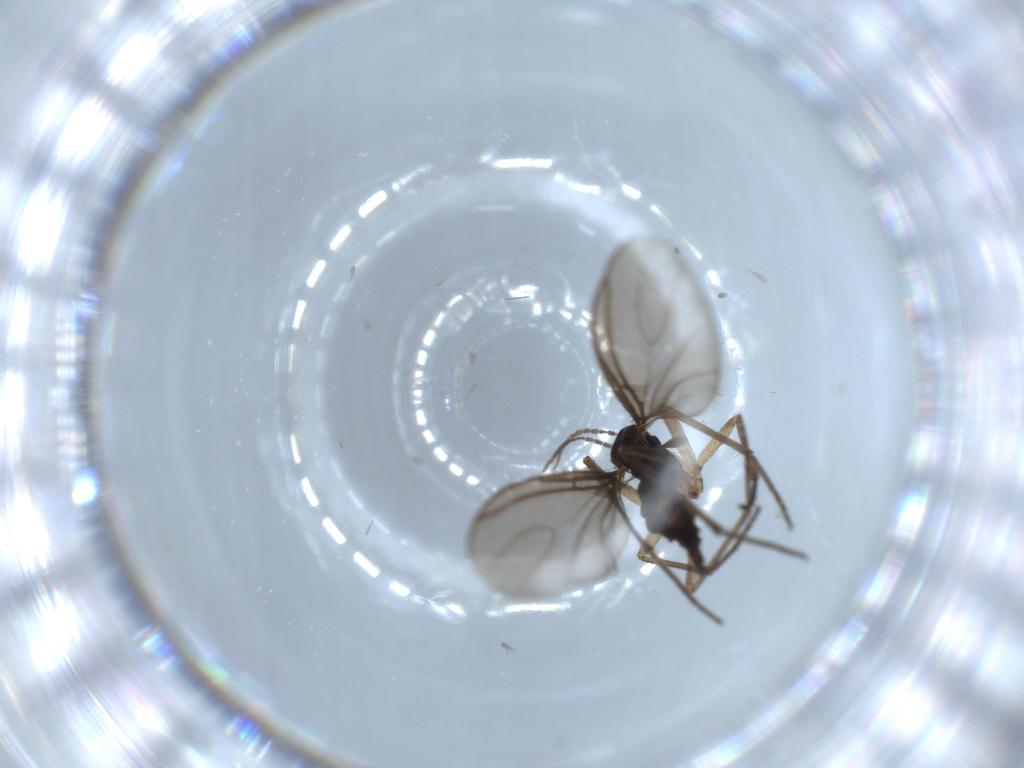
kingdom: Animalia
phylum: Arthropoda
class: Insecta
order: Diptera
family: Sciaridae
